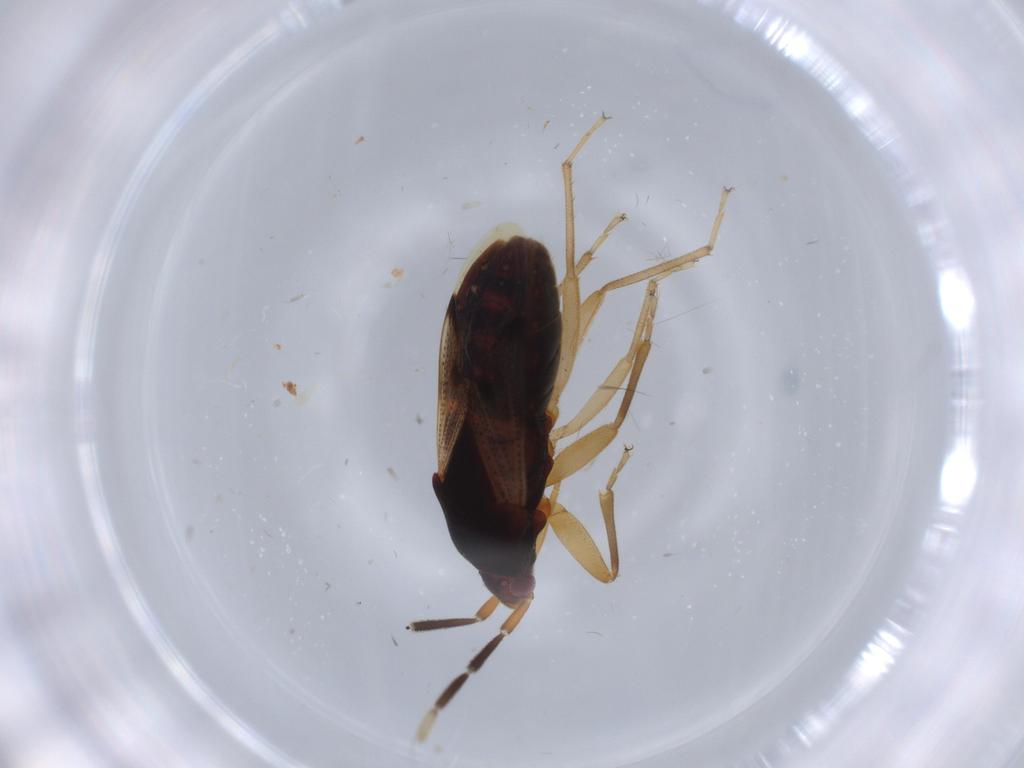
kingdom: Animalia
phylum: Arthropoda
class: Insecta
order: Hemiptera
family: Rhyparochromidae
